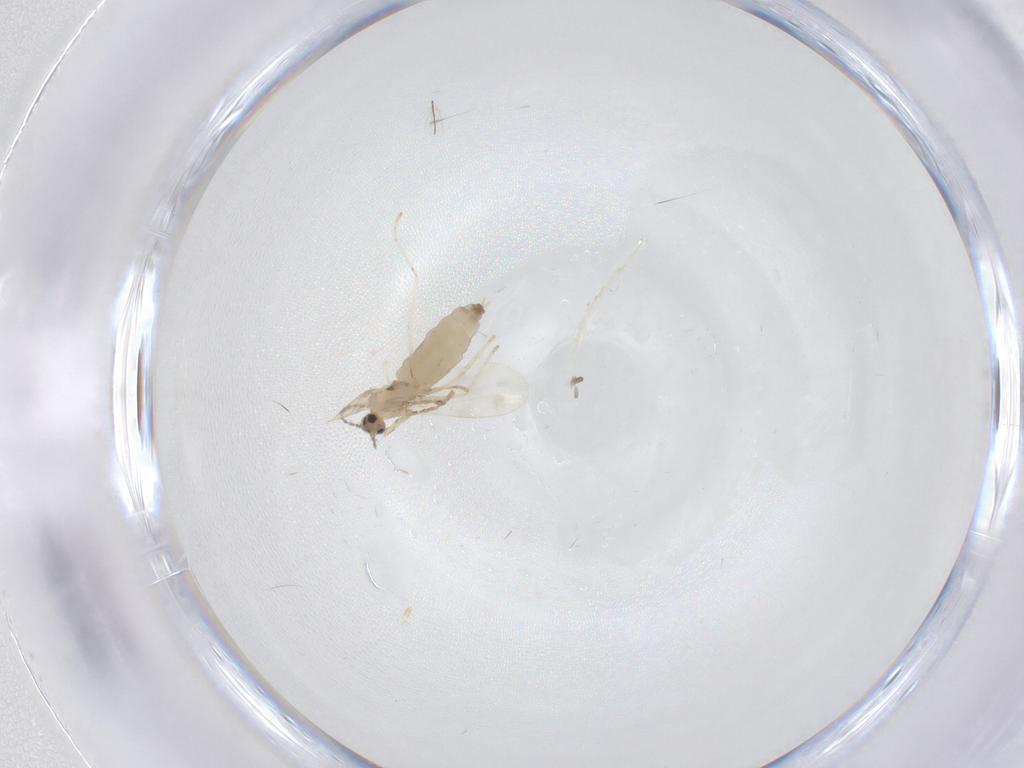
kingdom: Animalia
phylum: Arthropoda
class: Insecta
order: Diptera
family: Cecidomyiidae
